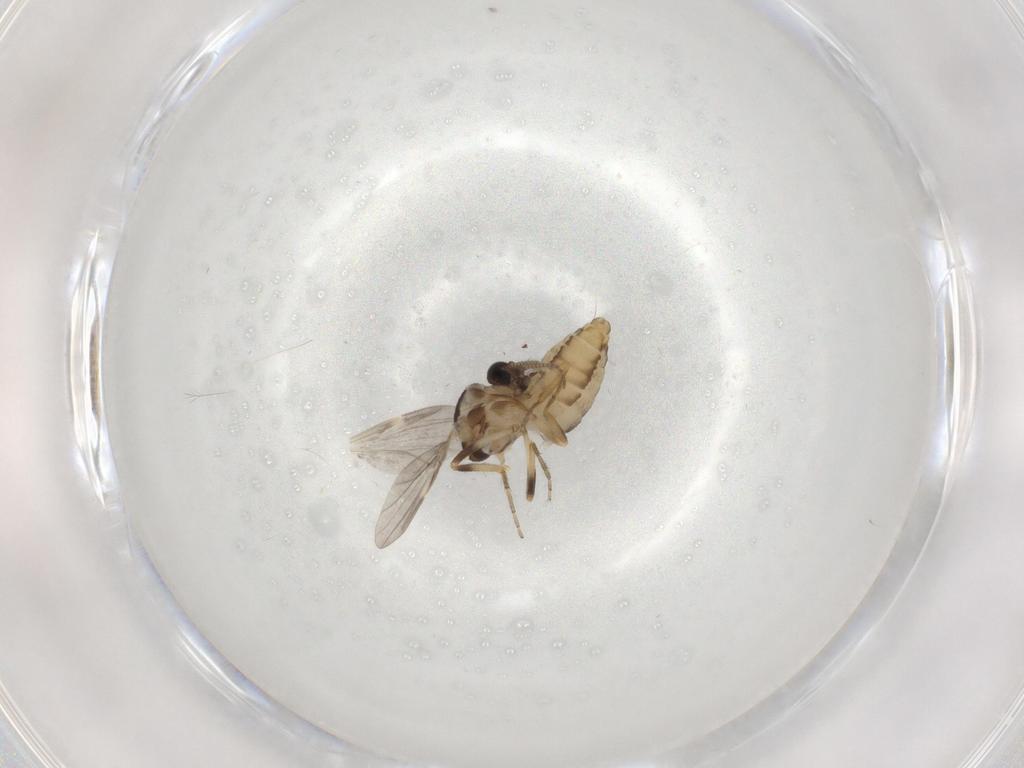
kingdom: Animalia
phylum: Arthropoda
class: Insecta
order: Diptera
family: Ceratopogonidae
